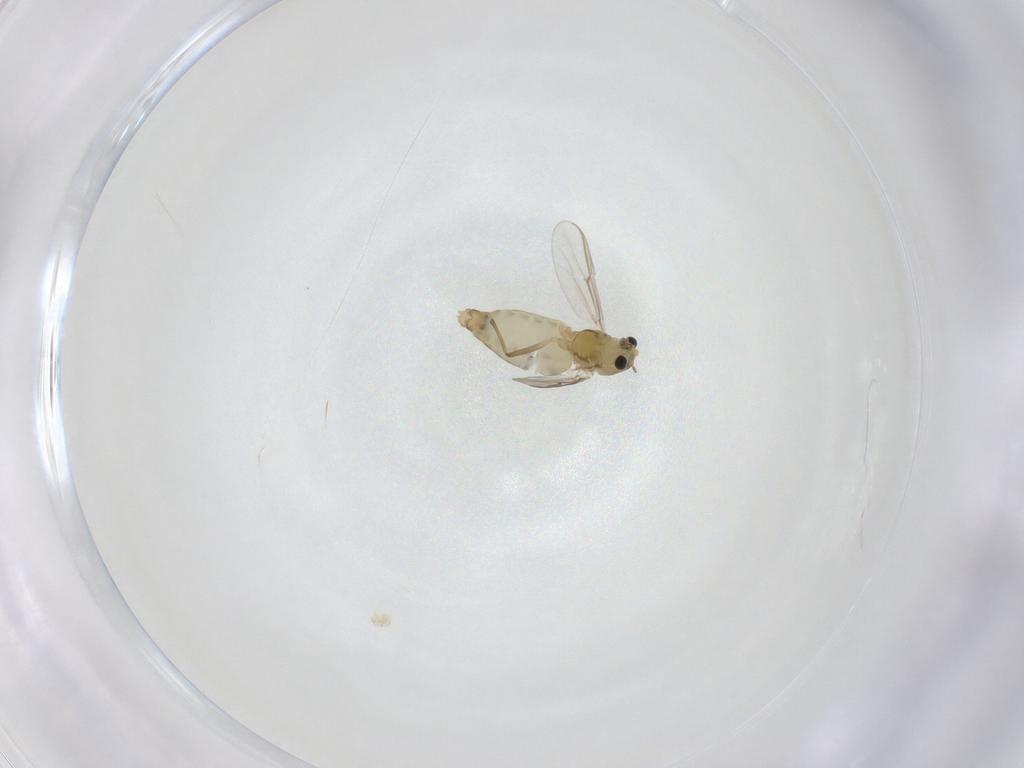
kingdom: Animalia
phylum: Arthropoda
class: Insecta
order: Diptera
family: Chironomidae
